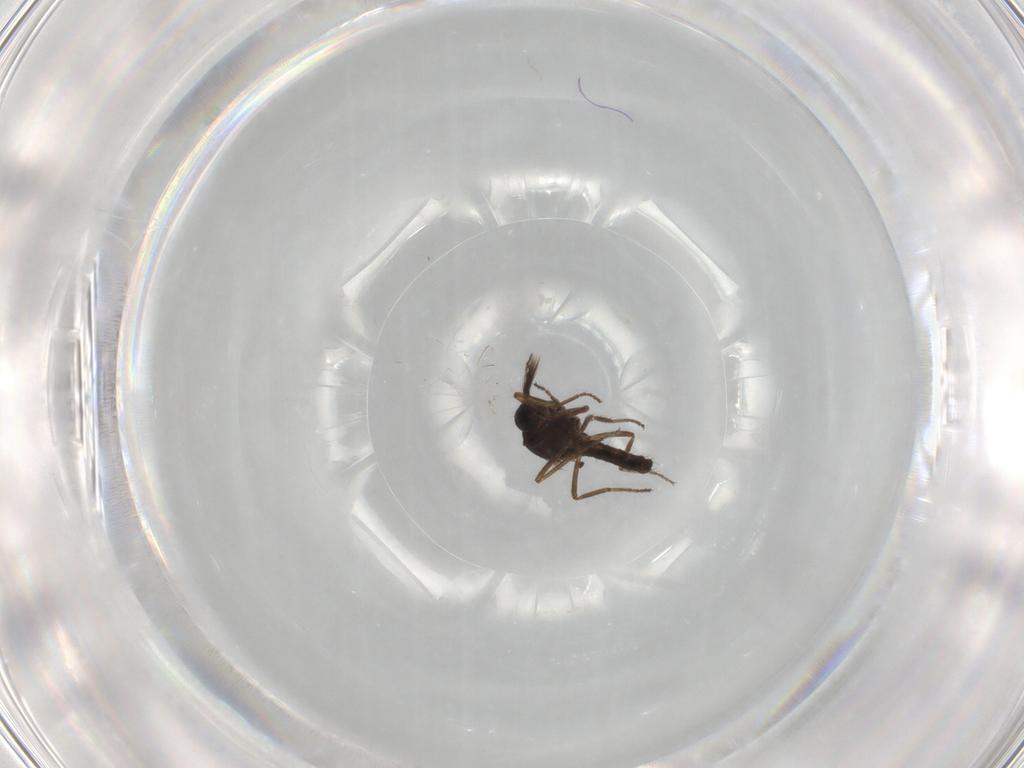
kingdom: Animalia
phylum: Arthropoda
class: Insecta
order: Diptera
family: Ceratopogonidae
